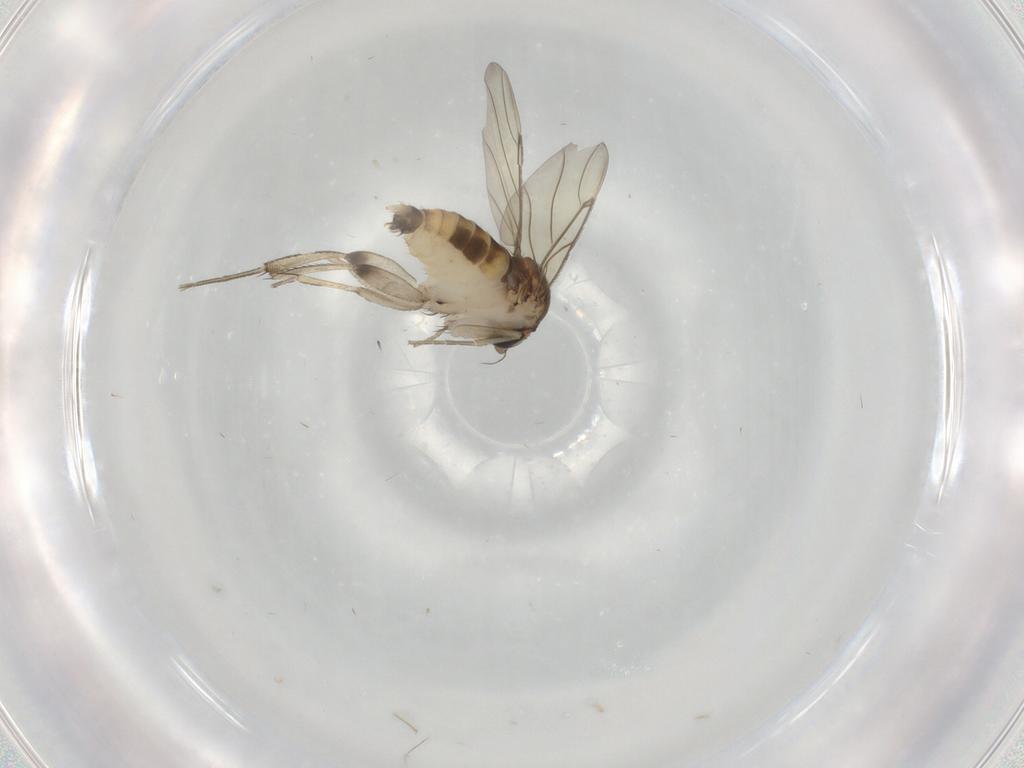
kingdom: Animalia
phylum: Arthropoda
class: Insecta
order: Diptera
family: Phoridae
